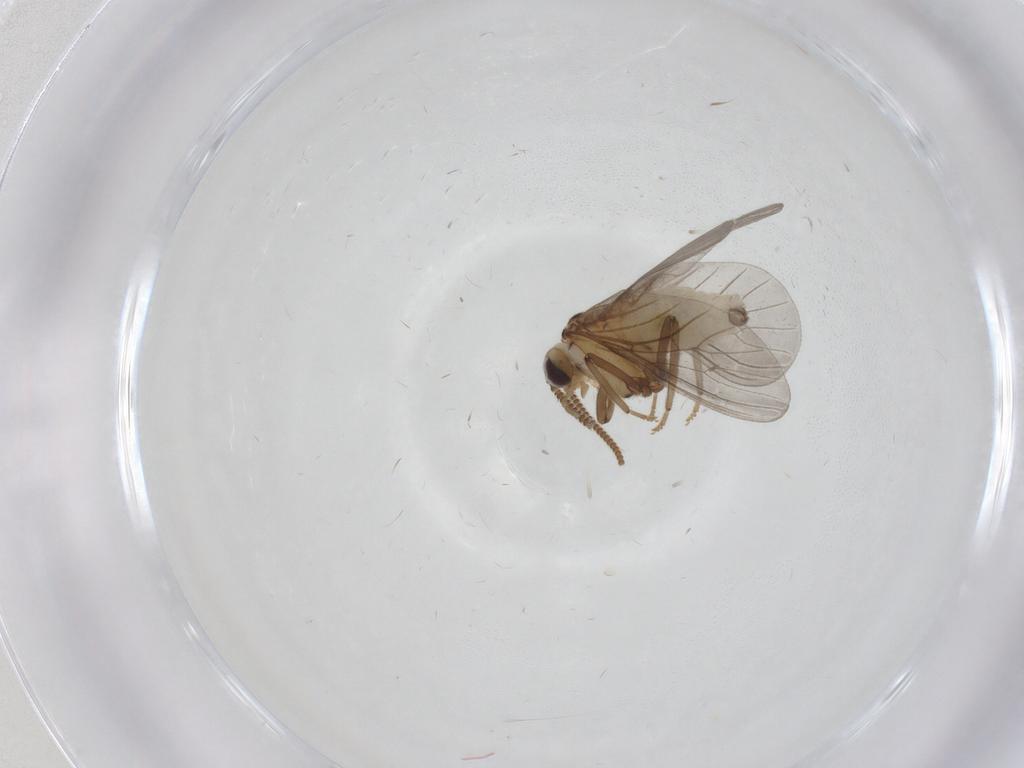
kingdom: Animalia
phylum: Arthropoda
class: Insecta
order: Neuroptera
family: Coniopterygidae
